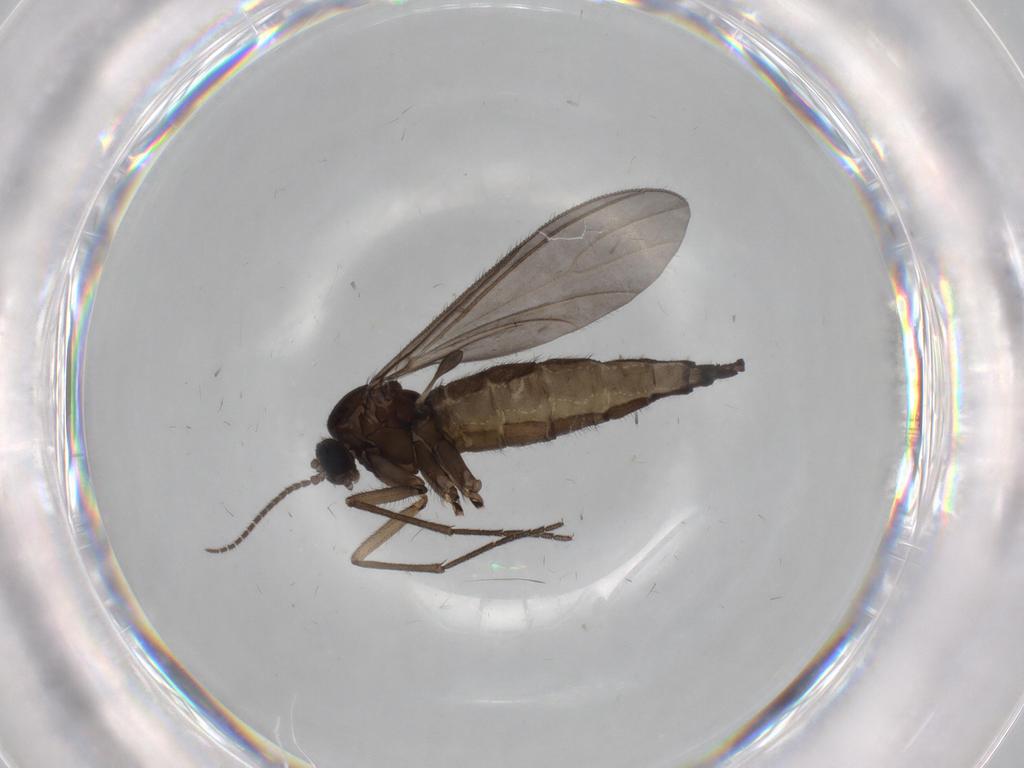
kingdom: Animalia
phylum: Arthropoda
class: Insecta
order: Diptera
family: Sciaridae
